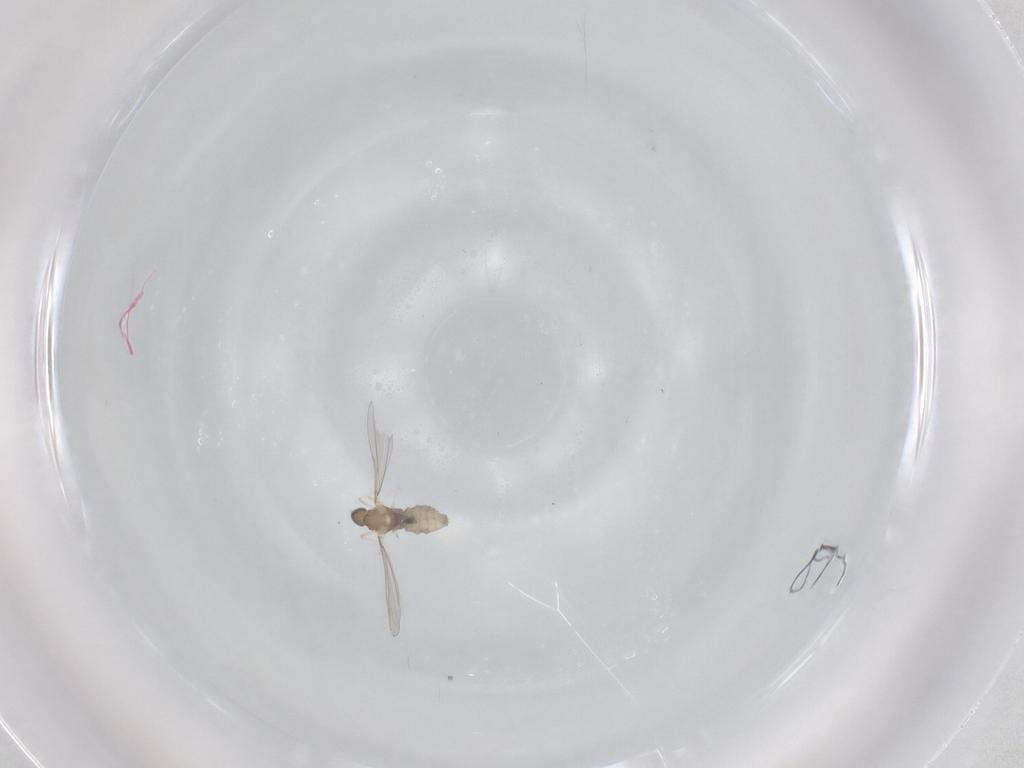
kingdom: Animalia
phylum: Arthropoda
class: Insecta
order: Diptera
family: Cecidomyiidae
